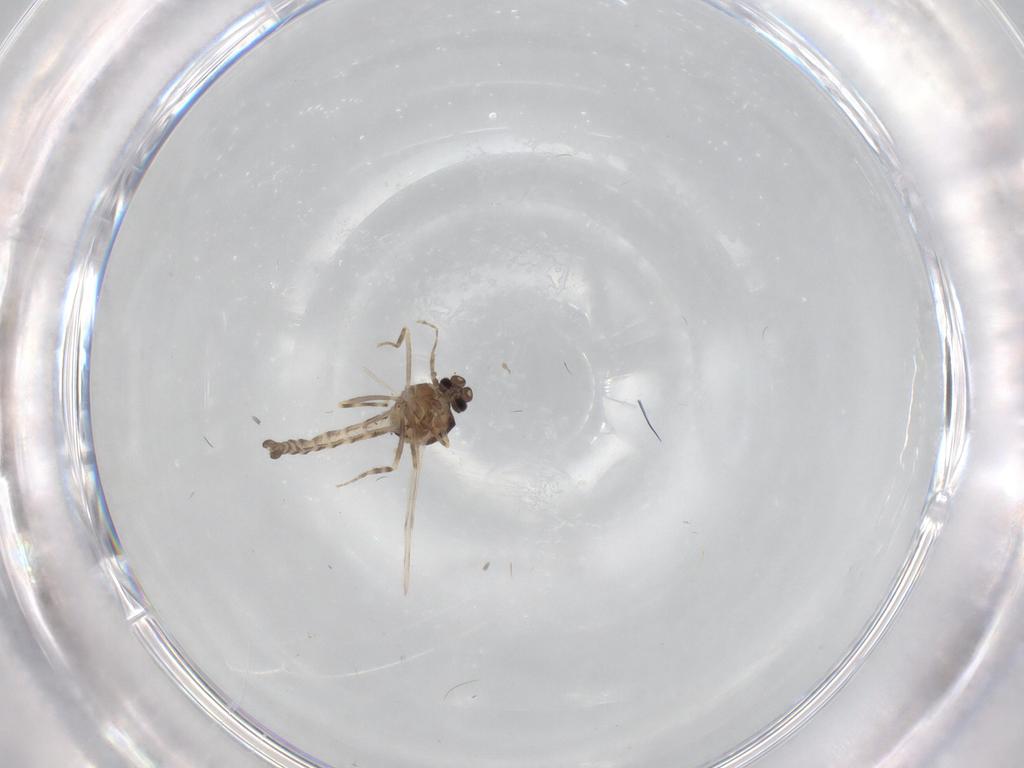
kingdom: Animalia
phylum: Arthropoda
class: Insecta
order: Diptera
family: Ceratopogonidae
